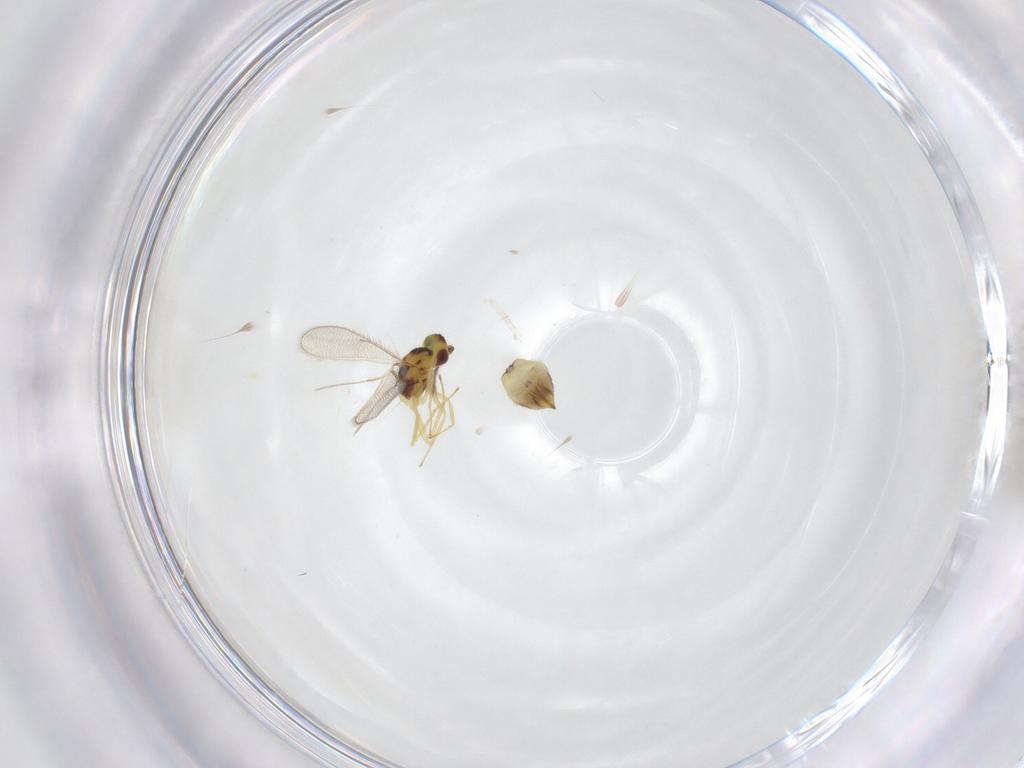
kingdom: Animalia
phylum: Arthropoda
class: Insecta
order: Hymenoptera
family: Eulophidae
